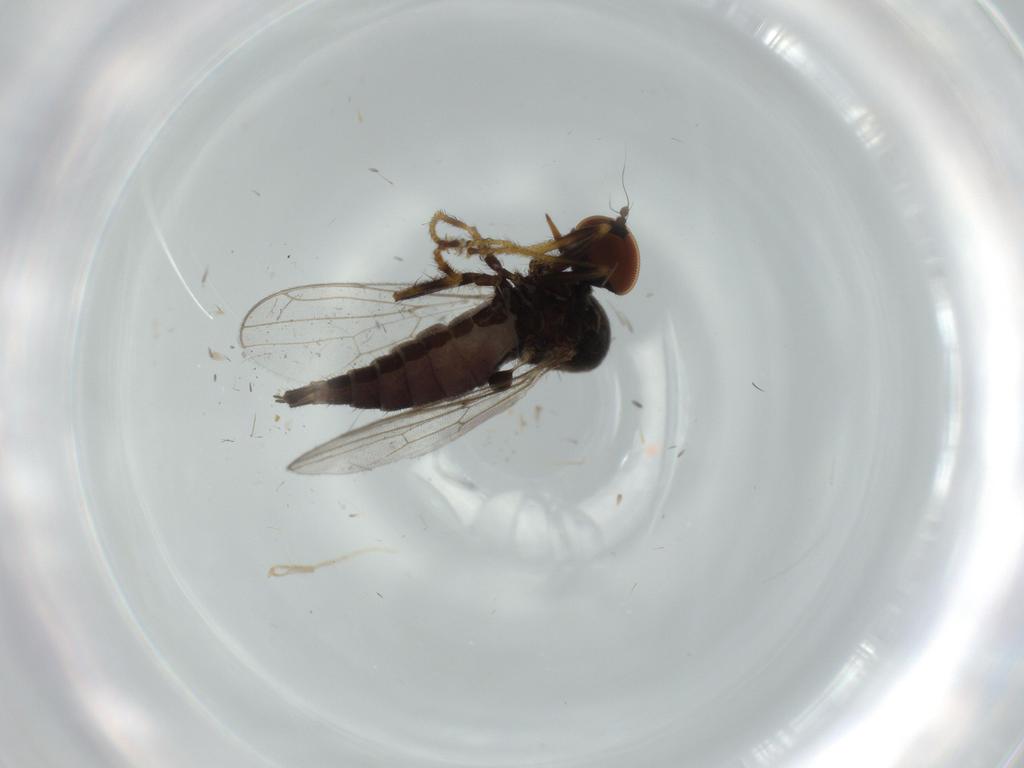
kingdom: Animalia
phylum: Arthropoda
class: Insecta
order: Diptera
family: Hybotidae
